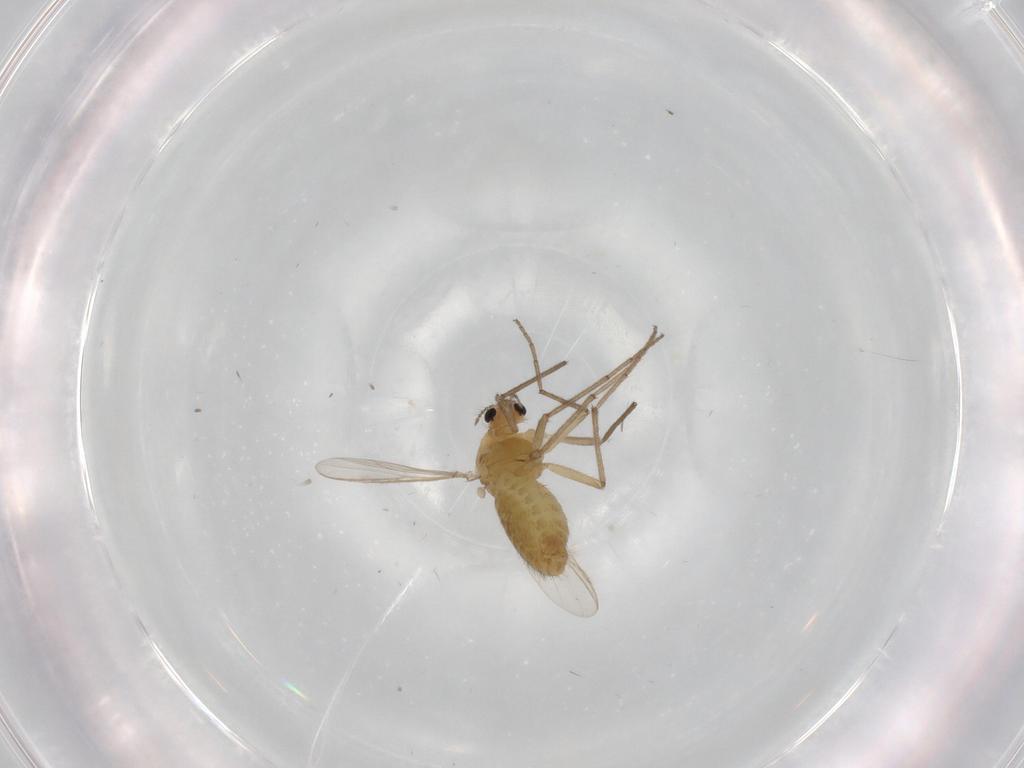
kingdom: Animalia
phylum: Arthropoda
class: Insecta
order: Diptera
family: Chironomidae
